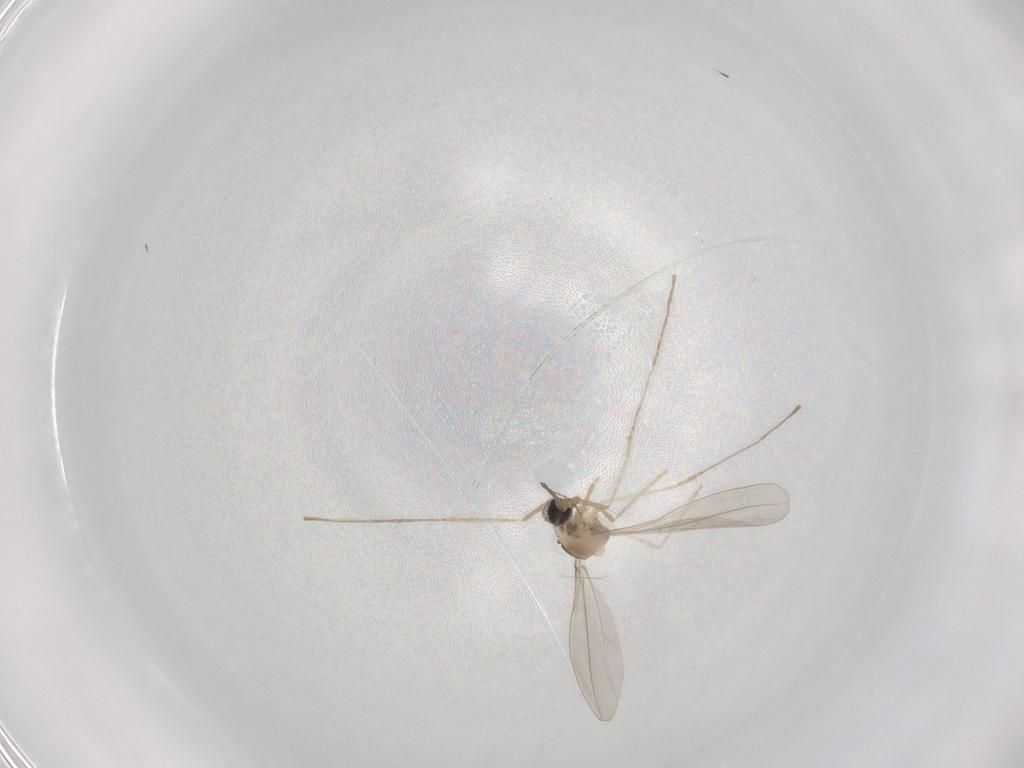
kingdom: Animalia
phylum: Arthropoda
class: Insecta
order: Diptera
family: Cecidomyiidae
